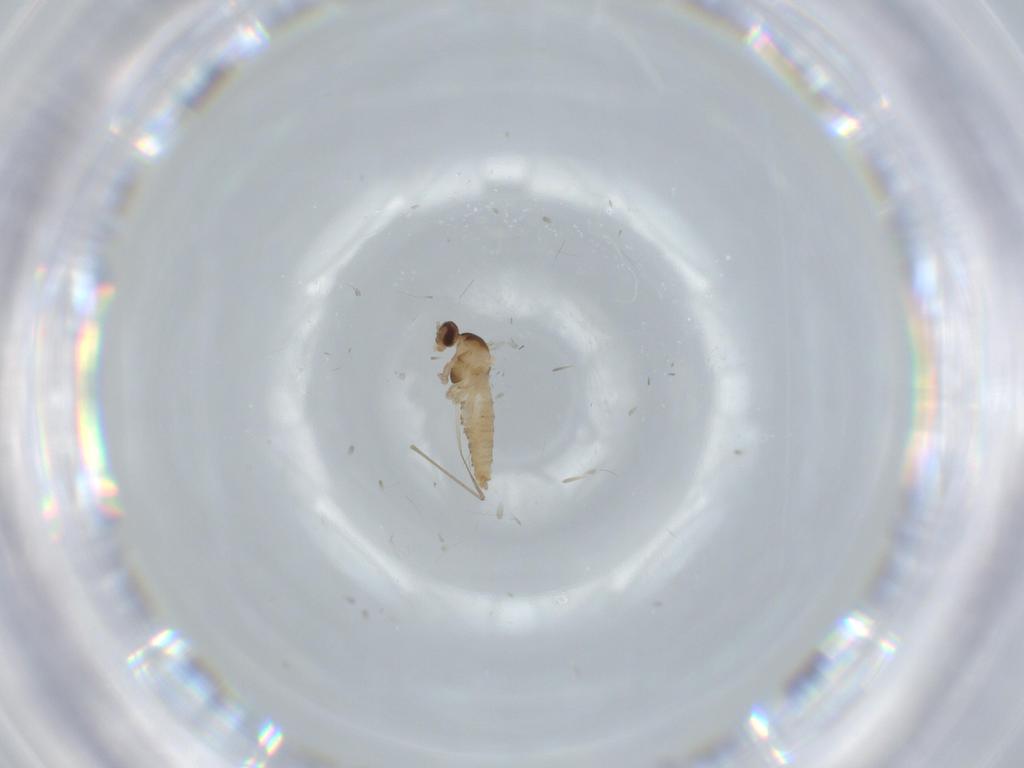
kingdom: Animalia
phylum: Arthropoda
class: Insecta
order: Diptera
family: Cecidomyiidae
